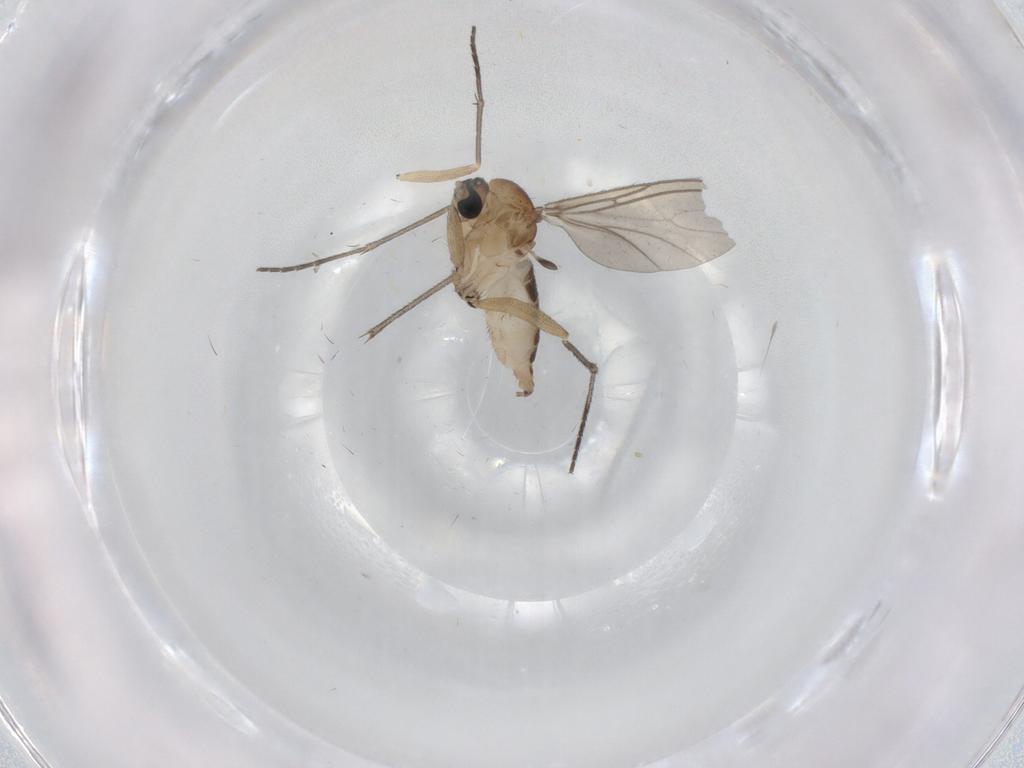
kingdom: Animalia
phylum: Arthropoda
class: Insecta
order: Diptera
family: Sciaridae
